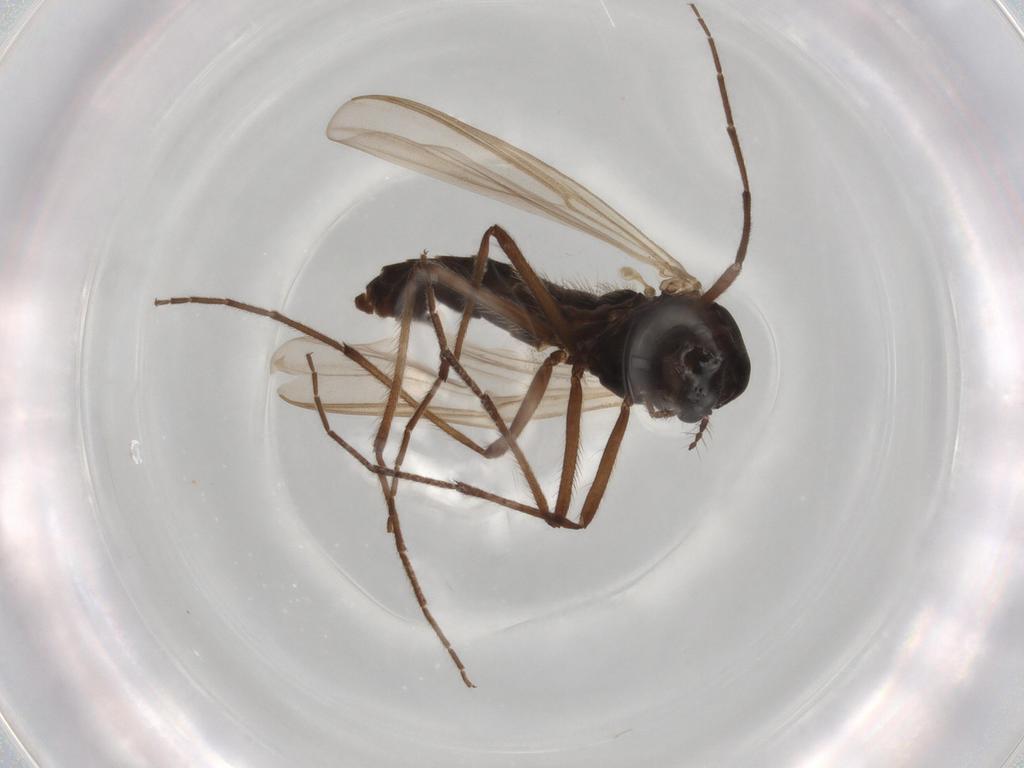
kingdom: Animalia
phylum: Arthropoda
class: Insecta
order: Diptera
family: Chironomidae
